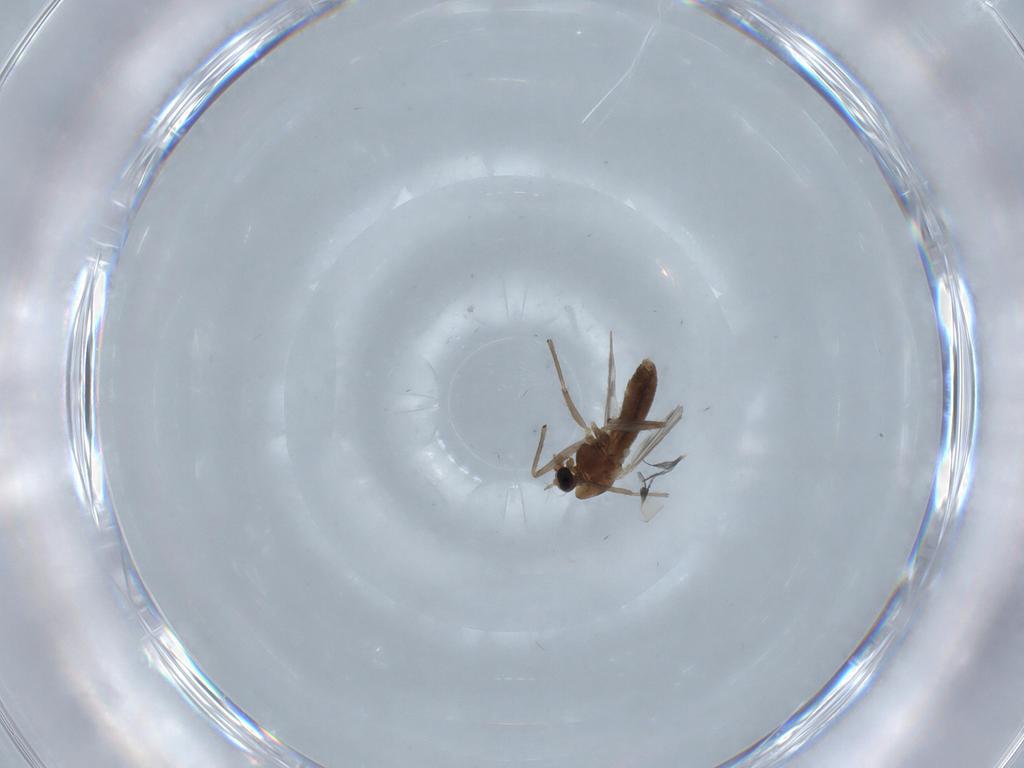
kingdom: Animalia
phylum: Arthropoda
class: Insecta
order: Diptera
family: Chironomidae
